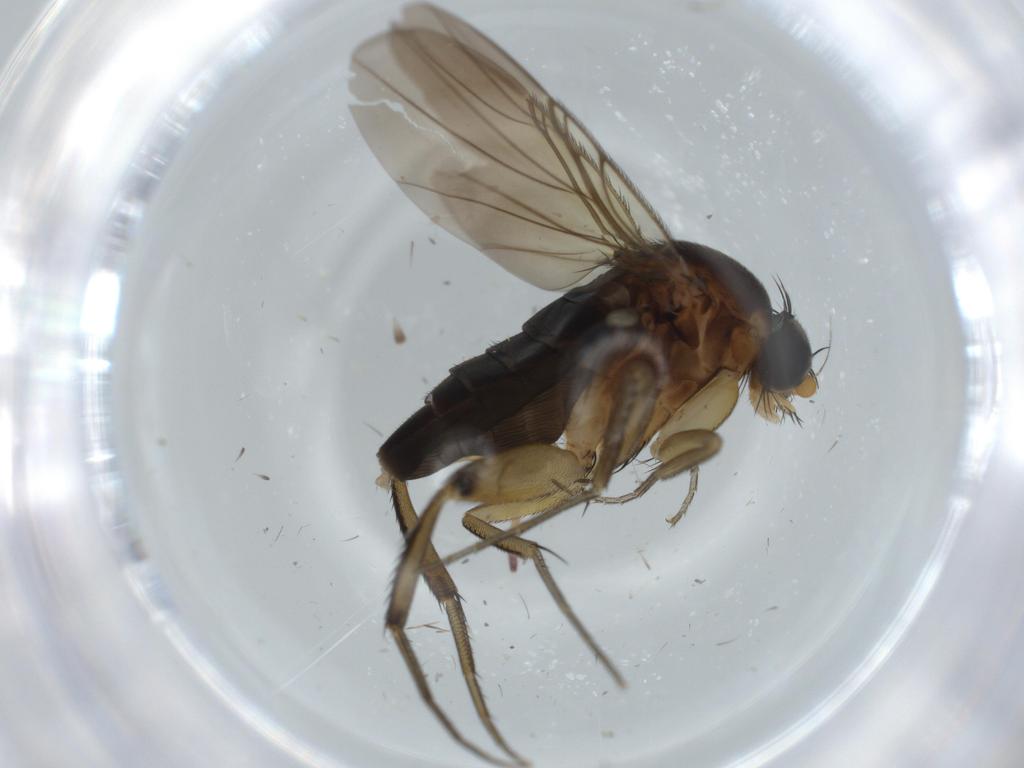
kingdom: Animalia
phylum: Arthropoda
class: Insecta
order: Diptera
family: Phoridae
